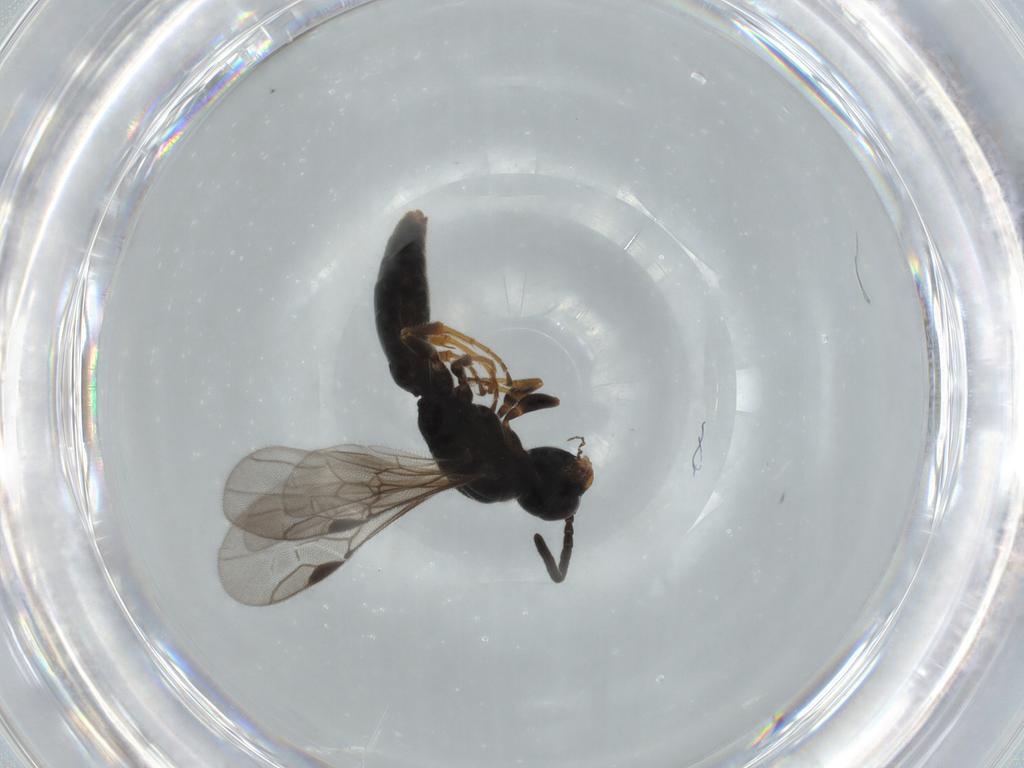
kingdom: Animalia
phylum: Arthropoda
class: Insecta
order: Hymenoptera
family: Sierolomorphidae
